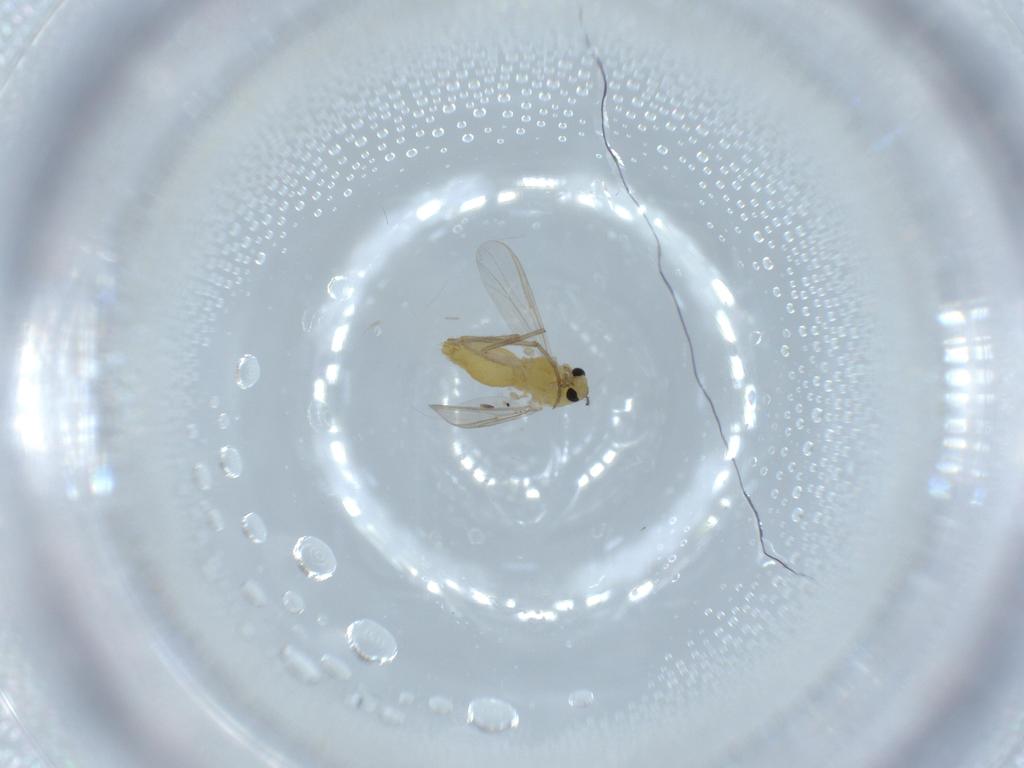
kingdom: Animalia
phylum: Arthropoda
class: Insecta
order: Diptera
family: Chironomidae
